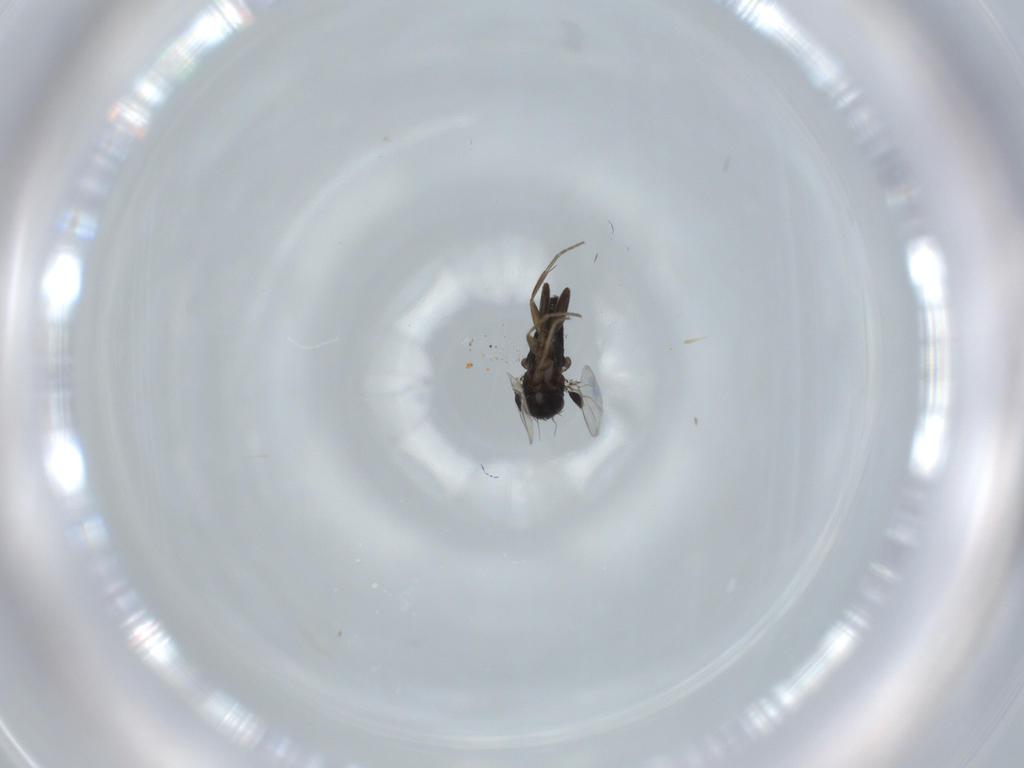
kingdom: Animalia
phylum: Arthropoda
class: Insecta
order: Diptera
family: Phoridae
